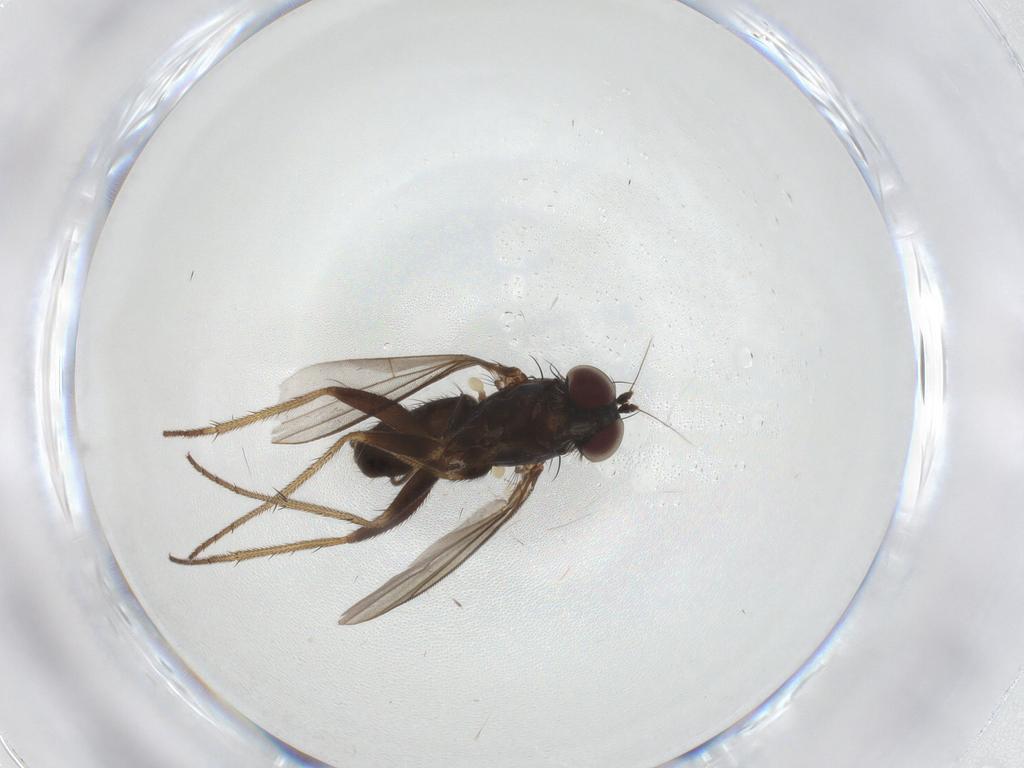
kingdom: Animalia
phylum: Arthropoda
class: Insecta
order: Diptera
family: Dolichopodidae
